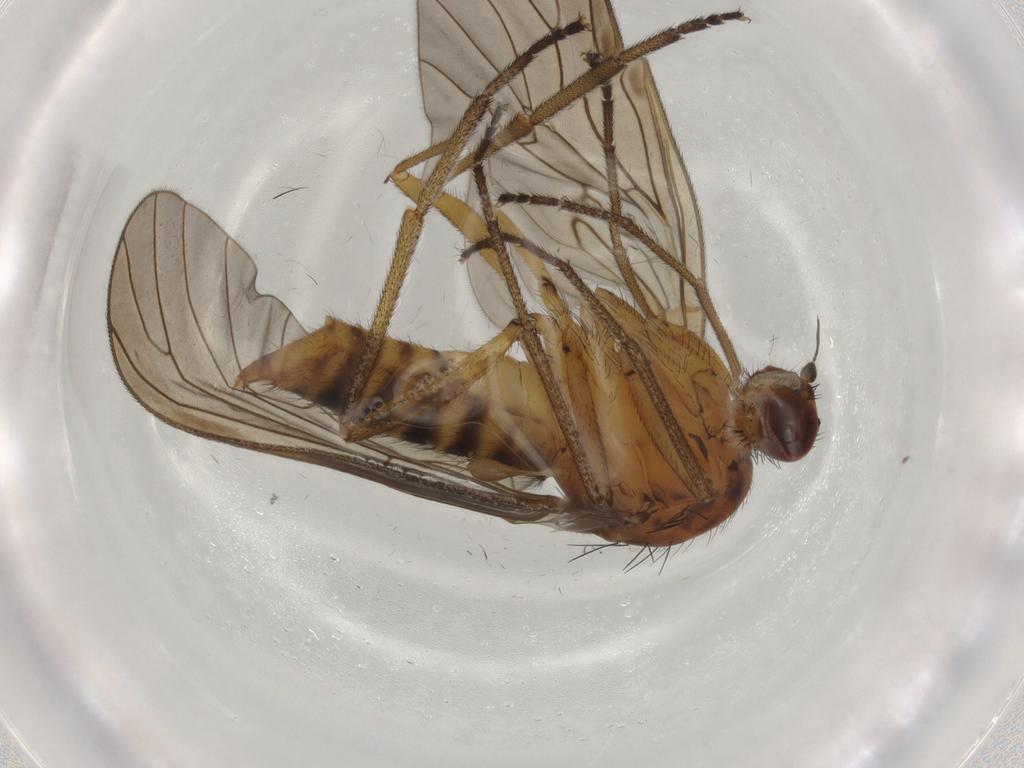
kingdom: Animalia
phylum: Arthropoda
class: Insecta
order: Diptera
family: Brachystomatidae
